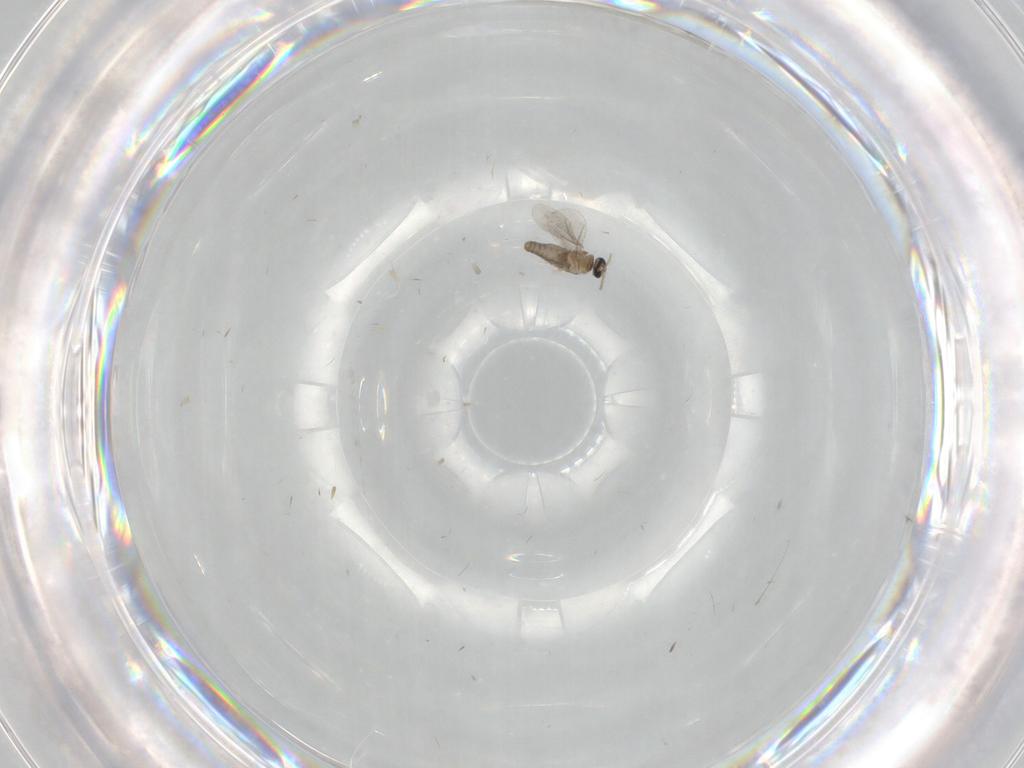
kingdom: Animalia
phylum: Arthropoda
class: Insecta
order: Diptera
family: Cecidomyiidae
